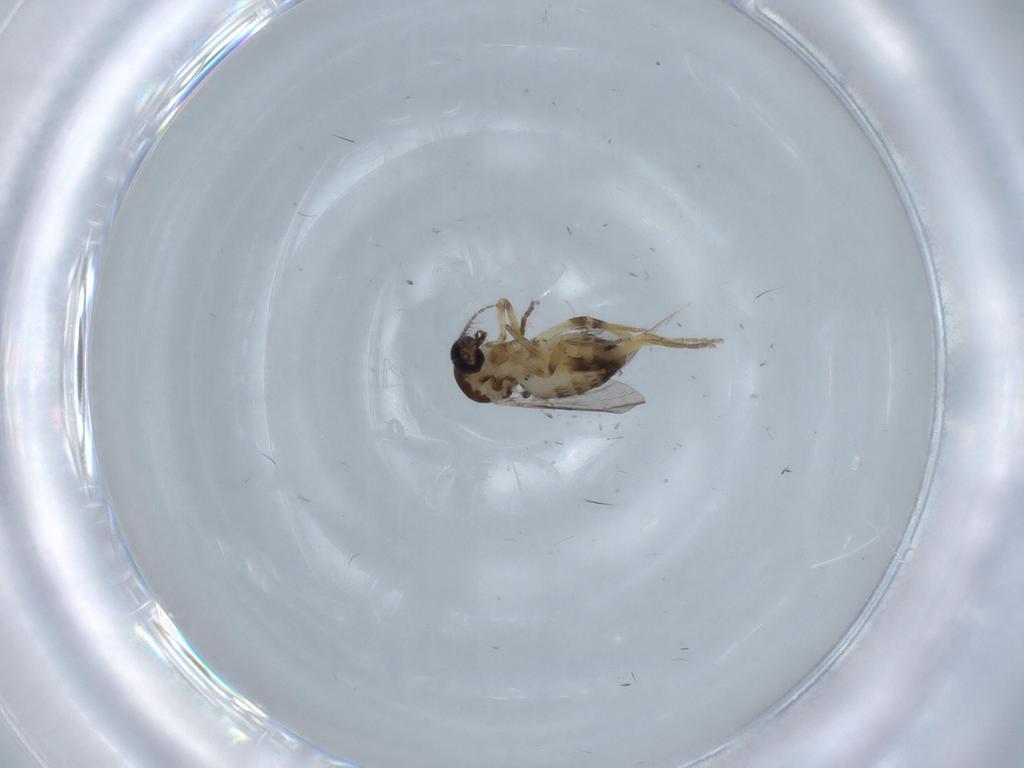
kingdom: Animalia
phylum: Arthropoda
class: Insecta
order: Diptera
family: Ceratopogonidae
